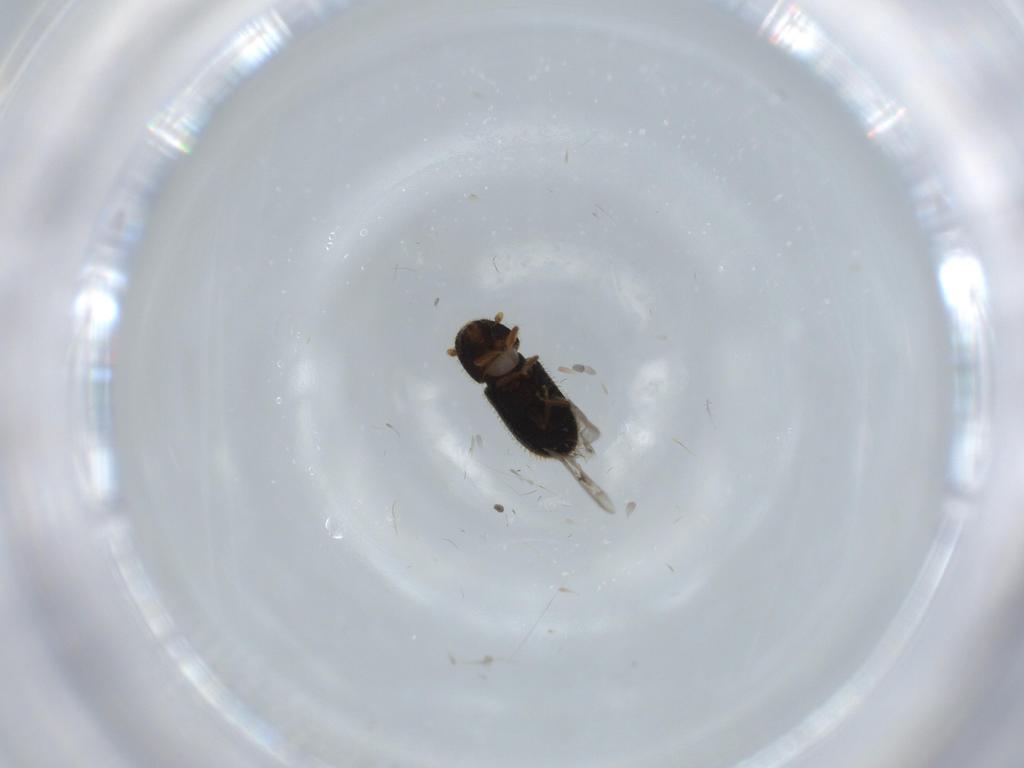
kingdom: Animalia
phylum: Arthropoda
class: Insecta
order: Coleoptera
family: Curculionidae
